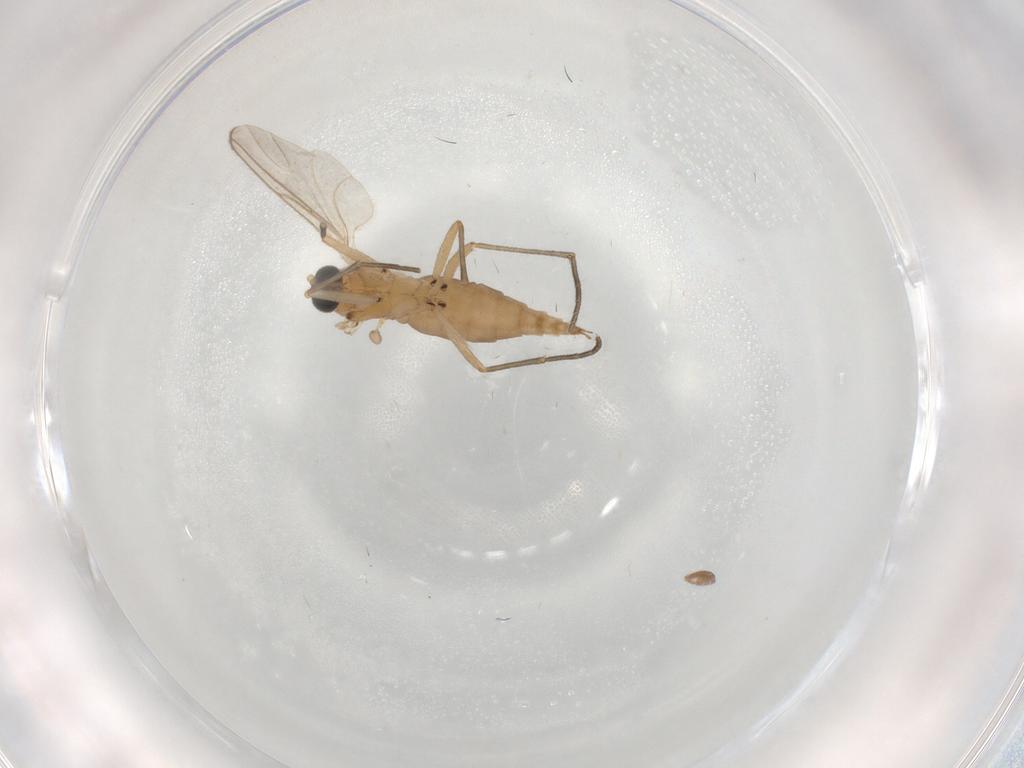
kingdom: Animalia
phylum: Arthropoda
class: Insecta
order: Diptera
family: Sciaridae
